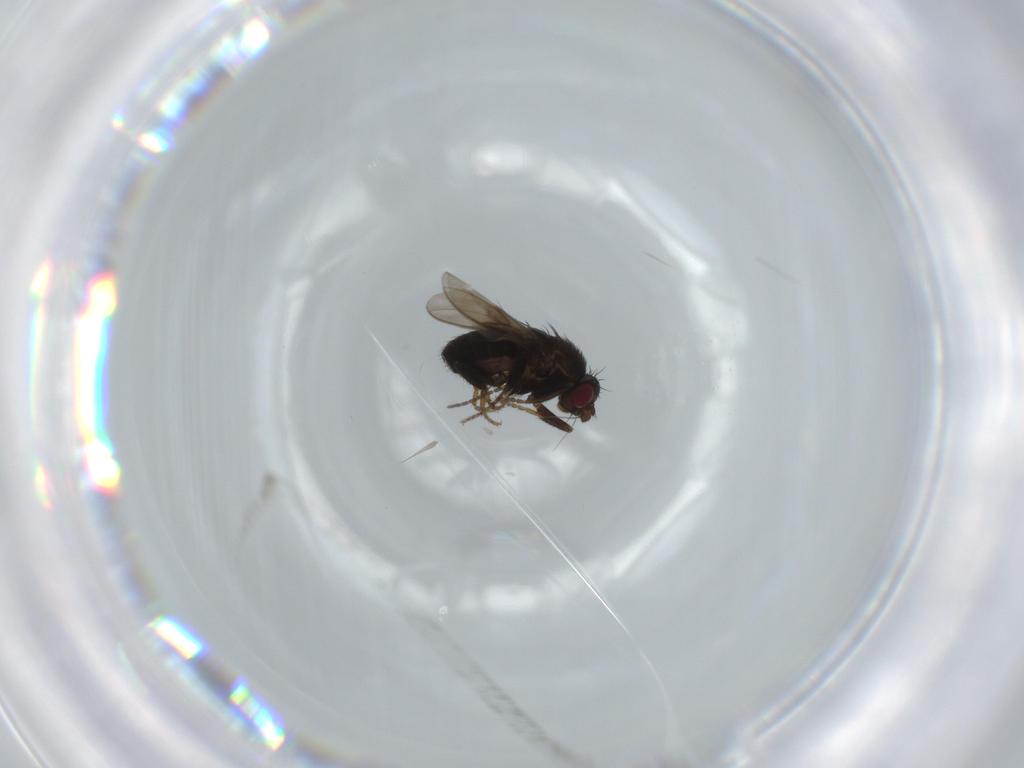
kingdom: Animalia
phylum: Arthropoda
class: Insecta
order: Diptera
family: Sphaeroceridae
